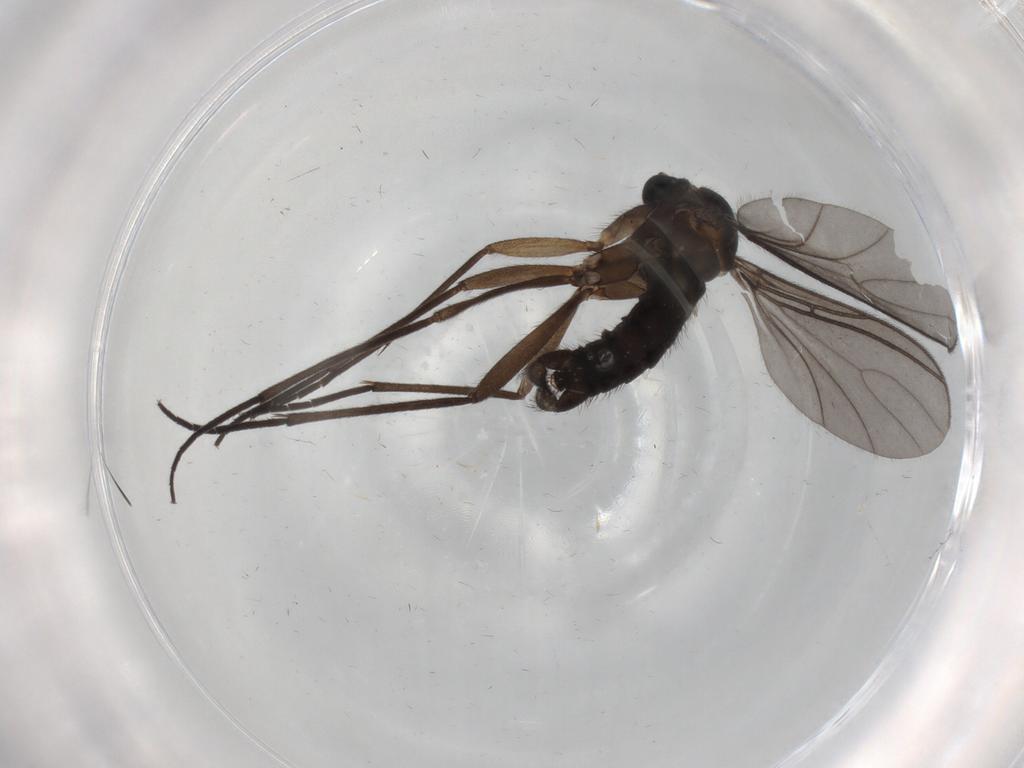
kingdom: Animalia
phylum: Arthropoda
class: Insecta
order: Diptera
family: Sciaridae
